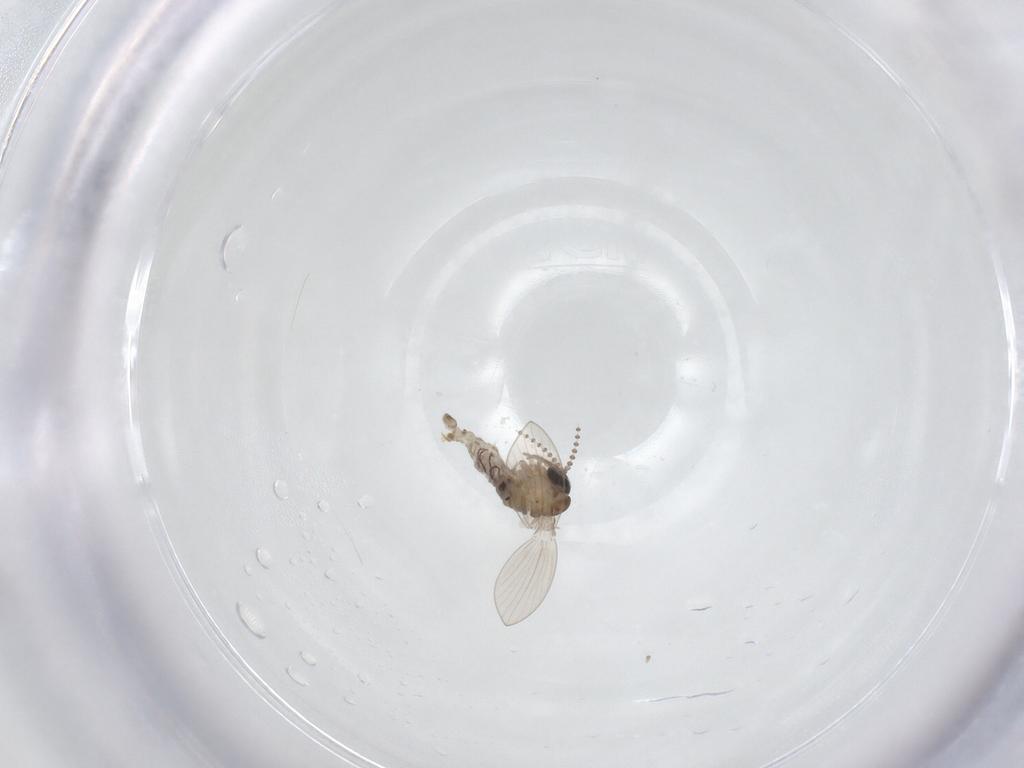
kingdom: Animalia
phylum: Arthropoda
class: Insecta
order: Diptera
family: Psychodidae
